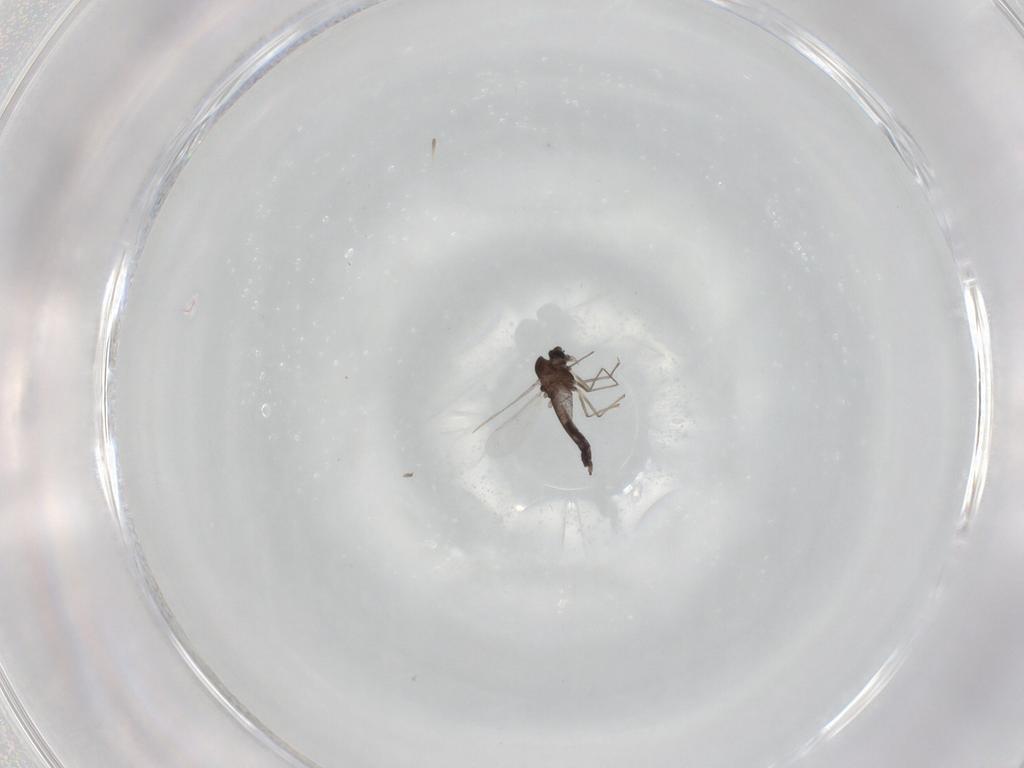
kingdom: Animalia
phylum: Arthropoda
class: Insecta
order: Diptera
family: Chironomidae
